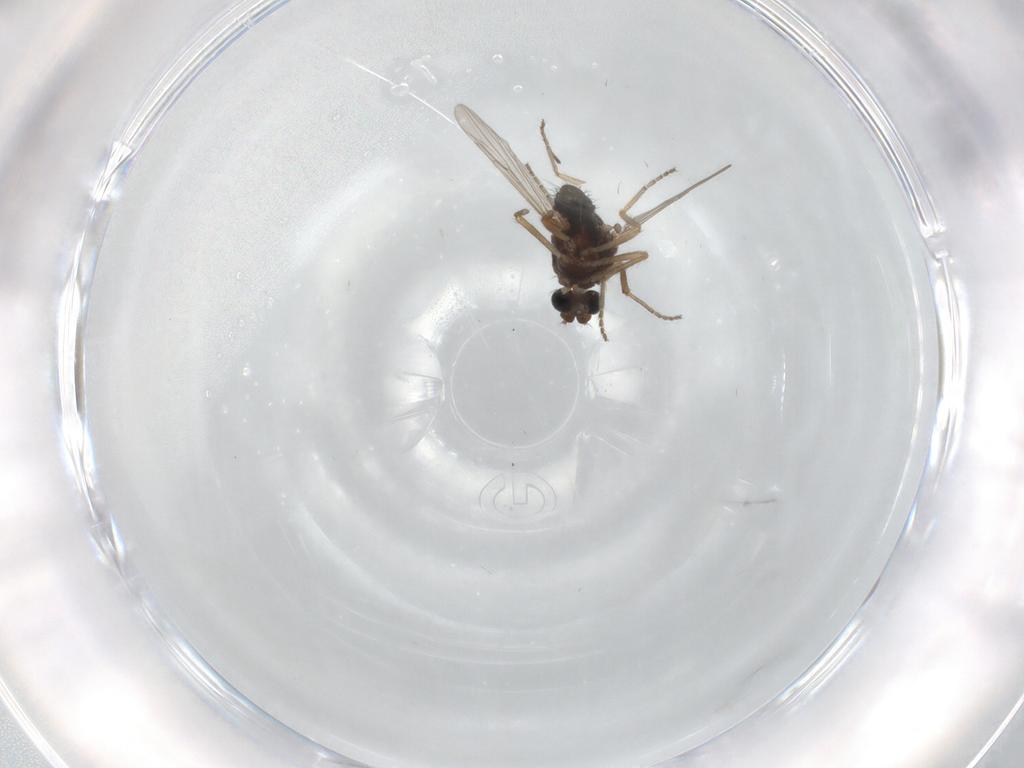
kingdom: Animalia
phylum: Arthropoda
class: Insecta
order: Diptera
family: Ceratopogonidae
